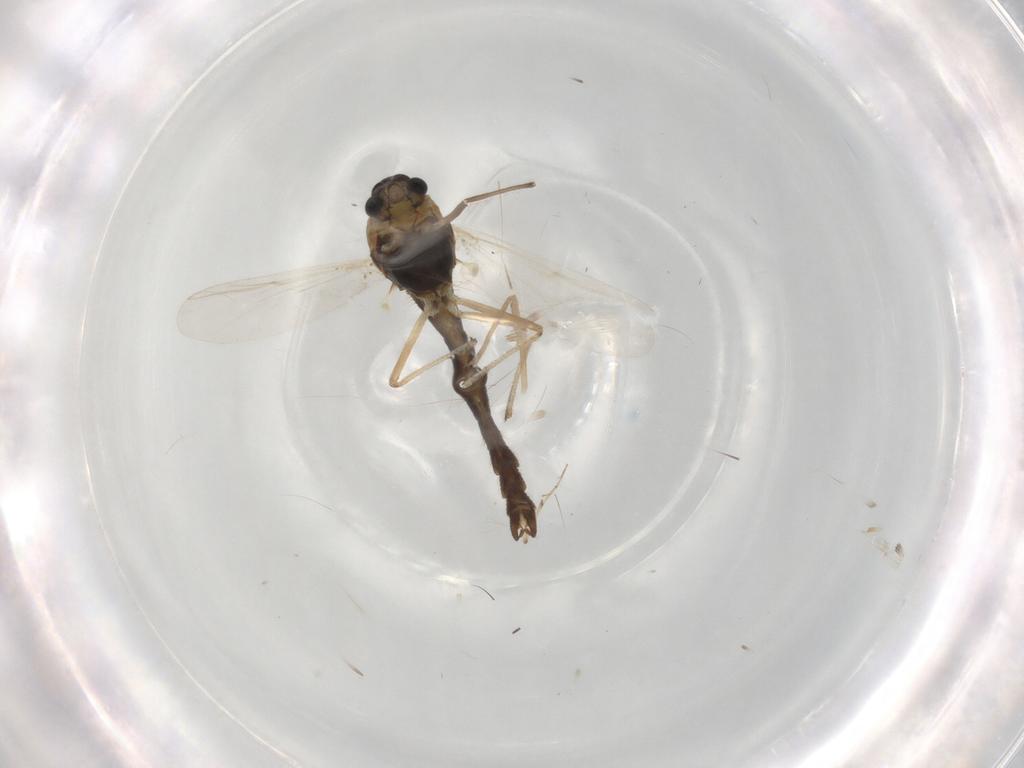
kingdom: Animalia
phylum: Arthropoda
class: Insecta
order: Diptera
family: Chironomidae
